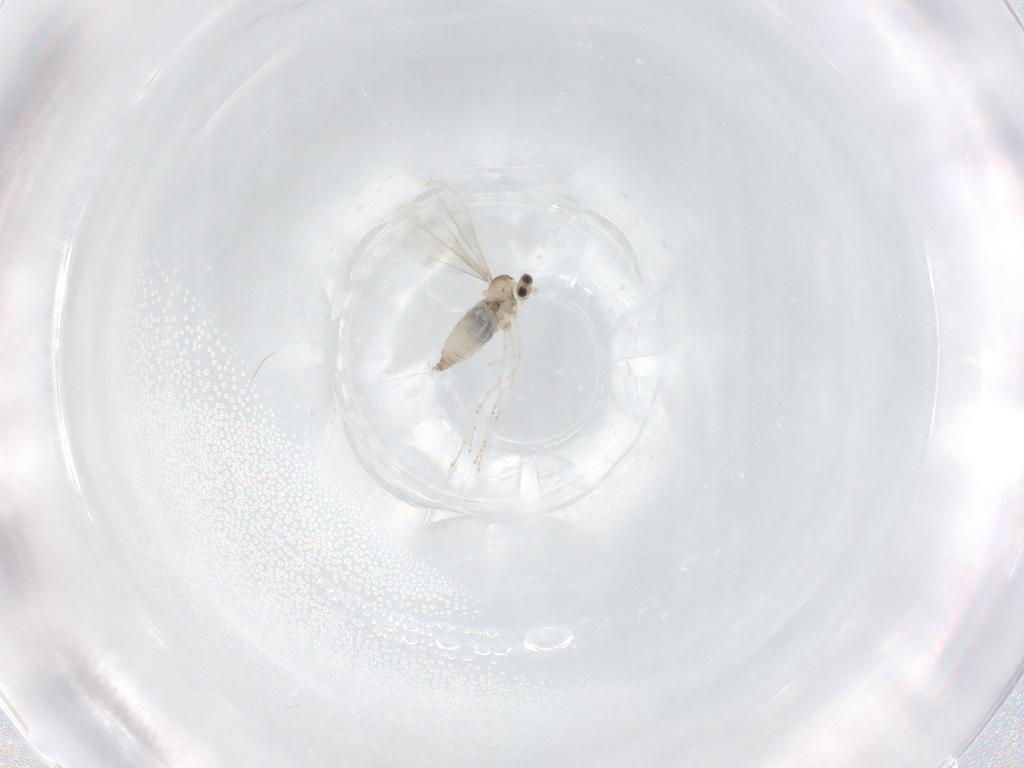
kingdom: Animalia
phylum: Arthropoda
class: Insecta
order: Diptera
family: Cecidomyiidae
